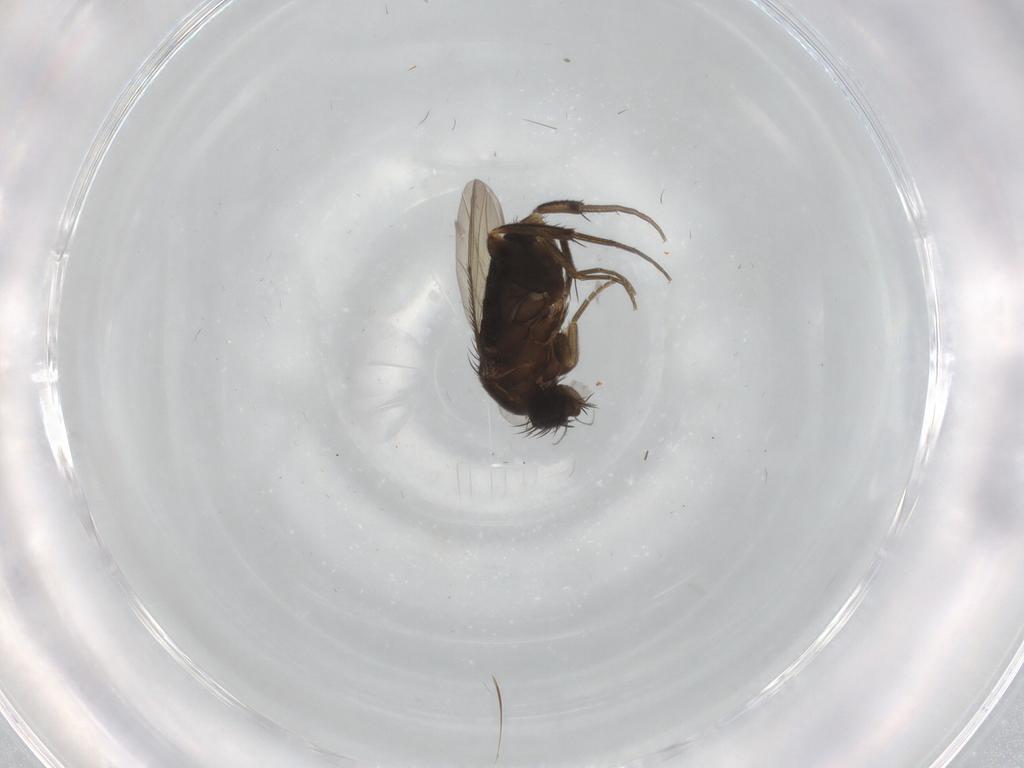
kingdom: Animalia
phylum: Arthropoda
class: Insecta
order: Diptera
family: Phoridae
